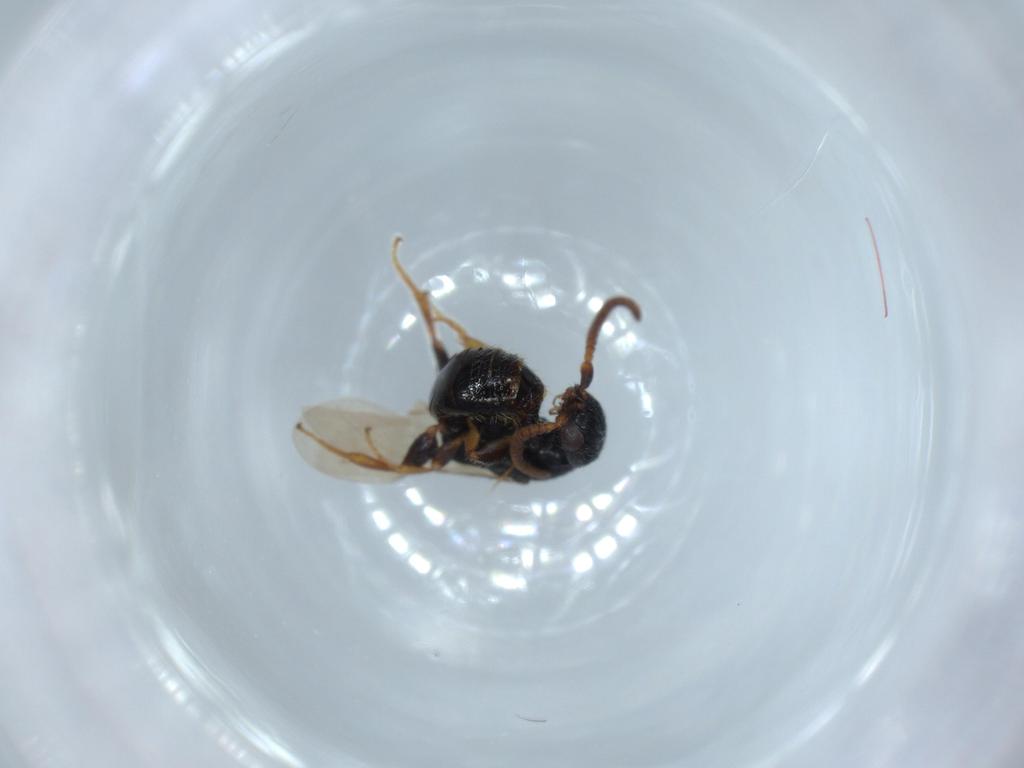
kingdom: Animalia
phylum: Arthropoda
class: Insecta
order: Hymenoptera
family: Bethylidae
